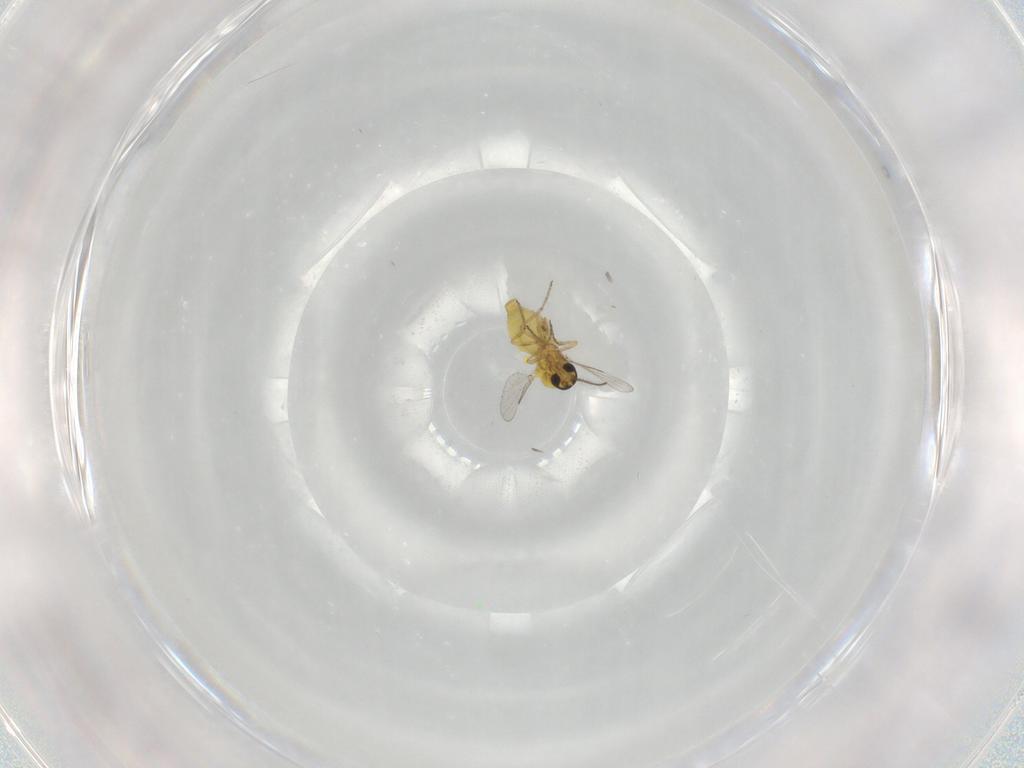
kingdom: Animalia
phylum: Arthropoda
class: Insecta
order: Diptera
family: Ceratopogonidae
